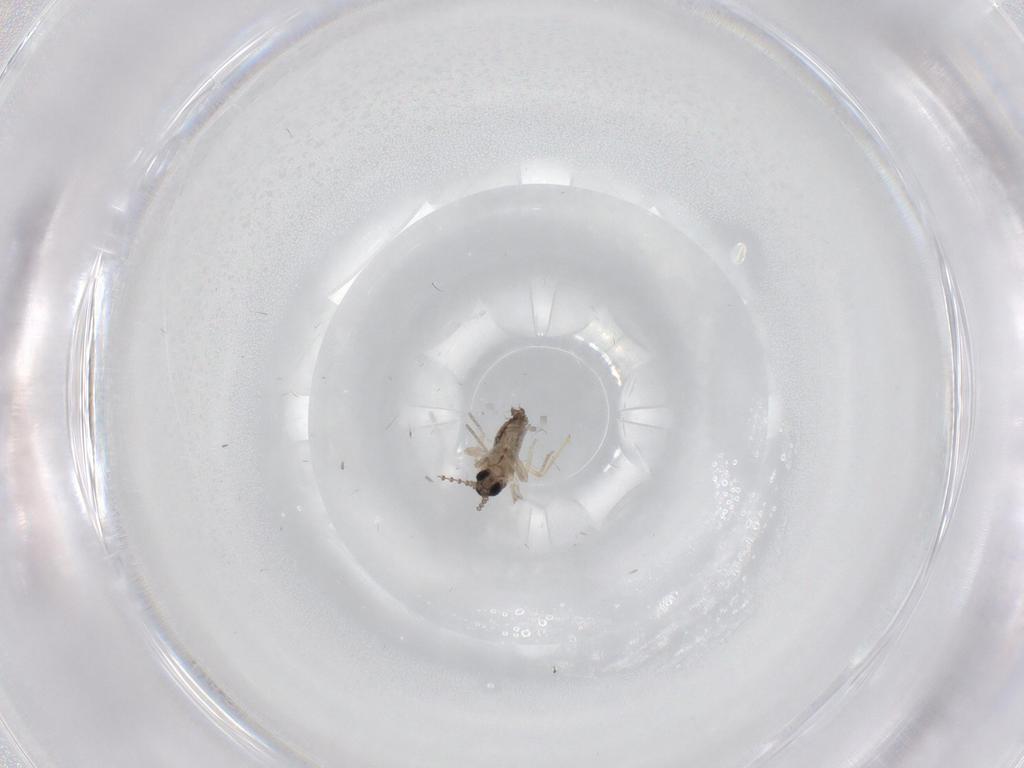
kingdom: Animalia
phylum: Arthropoda
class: Insecta
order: Diptera
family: Cecidomyiidae
